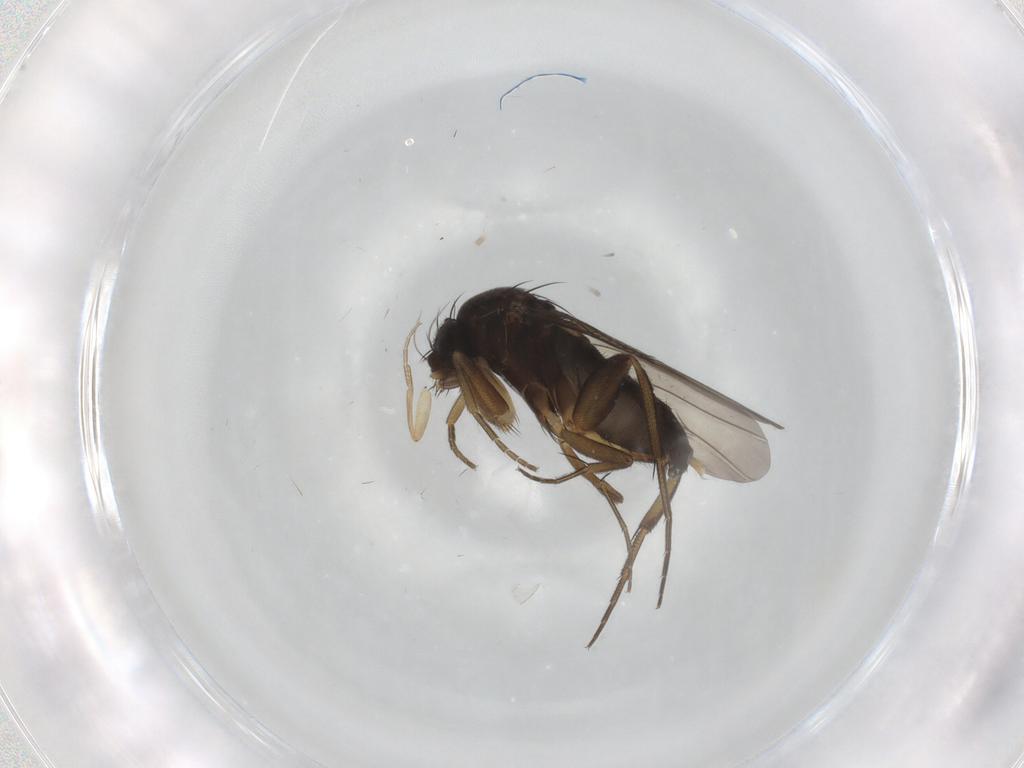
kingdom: Animalia
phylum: Arthropoda
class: Insecta
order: Diptera
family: Phoridae
